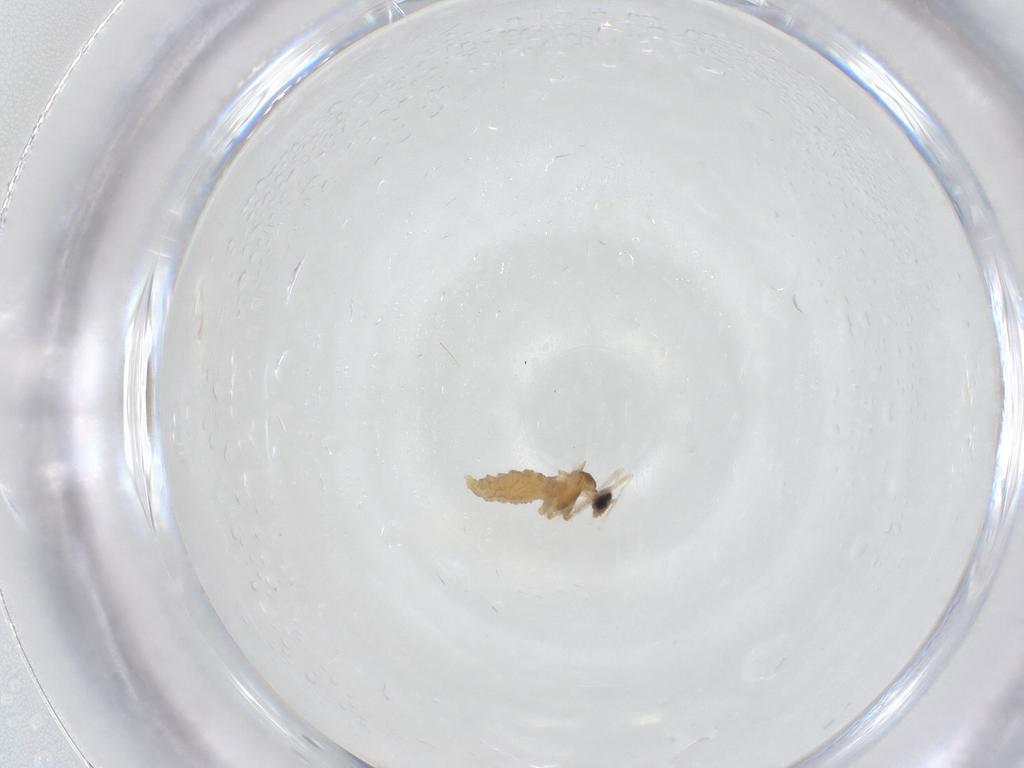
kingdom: Animalia
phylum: Arthropoda
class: Insecta
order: Diptera
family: Cecidomyiidae
